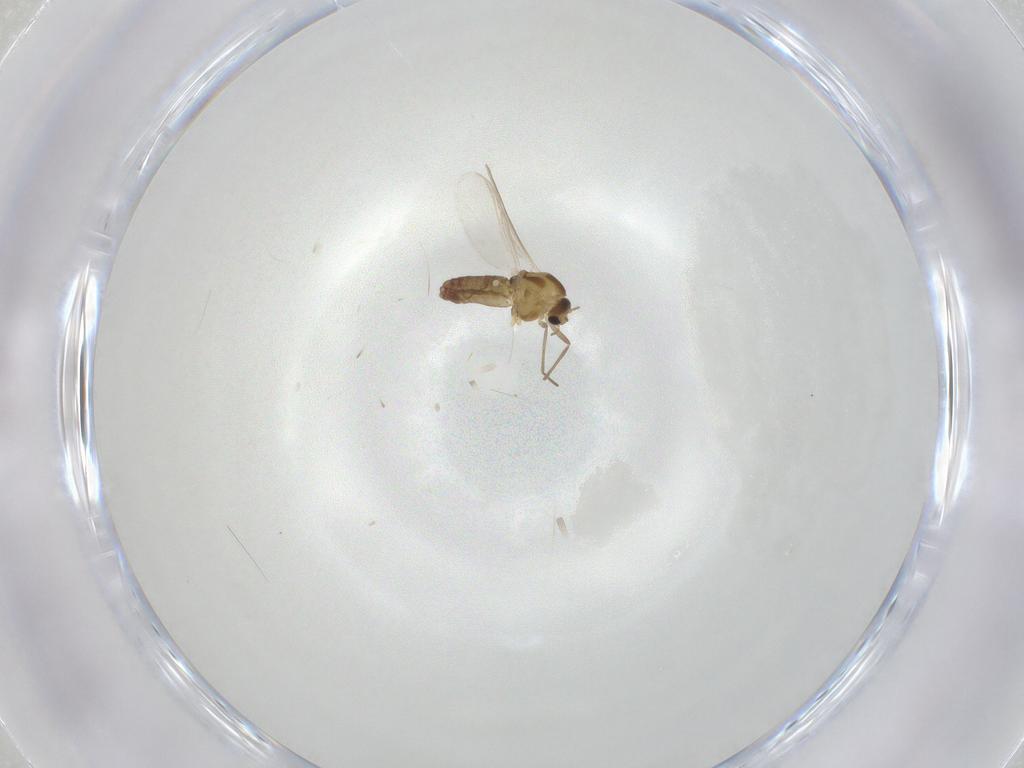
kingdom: Animalia
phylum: Arthropoda
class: Insecta
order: Diptera
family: Chironomidae
